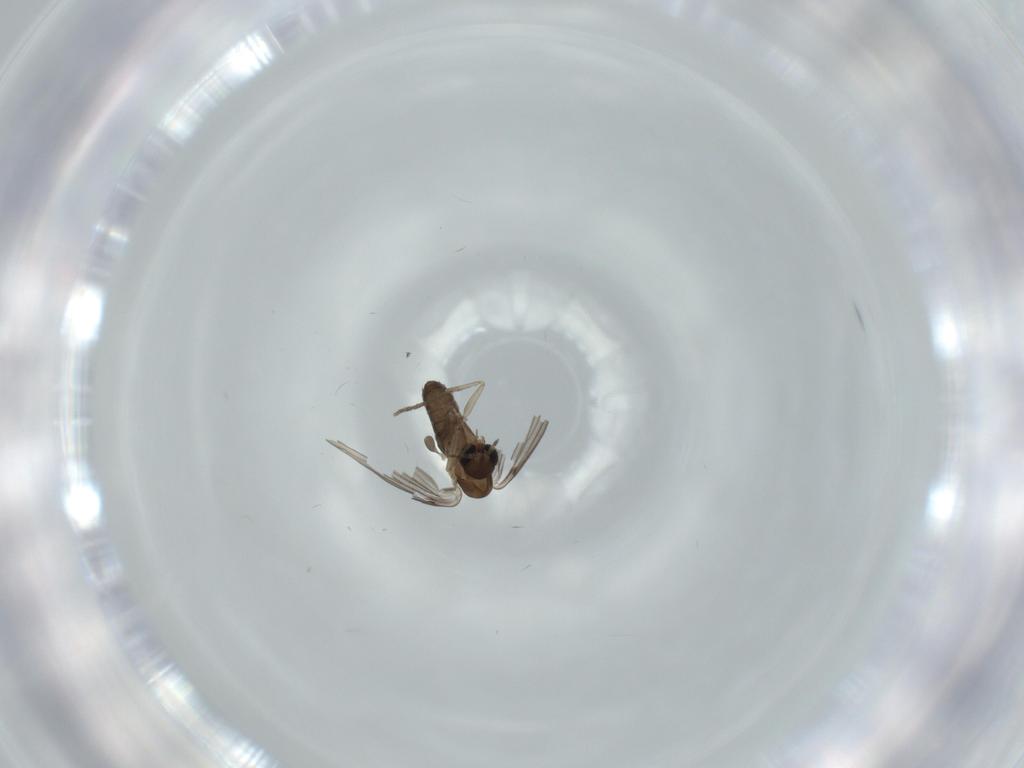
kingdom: Animalia
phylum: Arthropoda
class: Insecta
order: Diptera
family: Psychodidae
